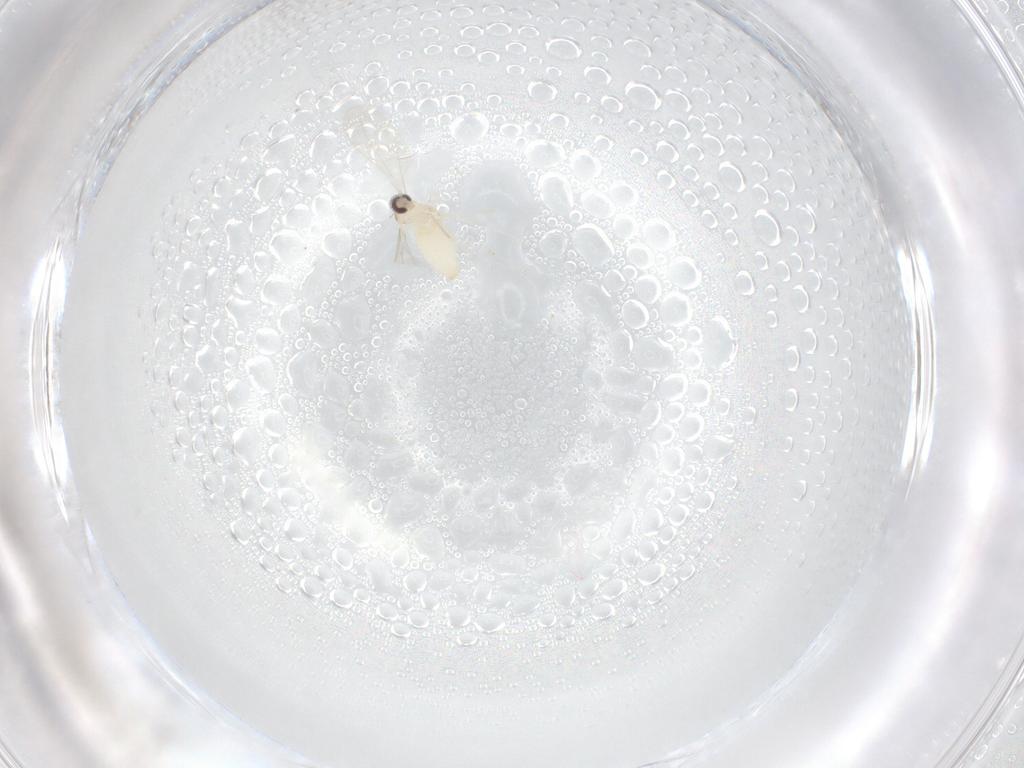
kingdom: Animalia
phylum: Arthropoda
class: Insecta
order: Diptera
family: Cecidomyiidae
